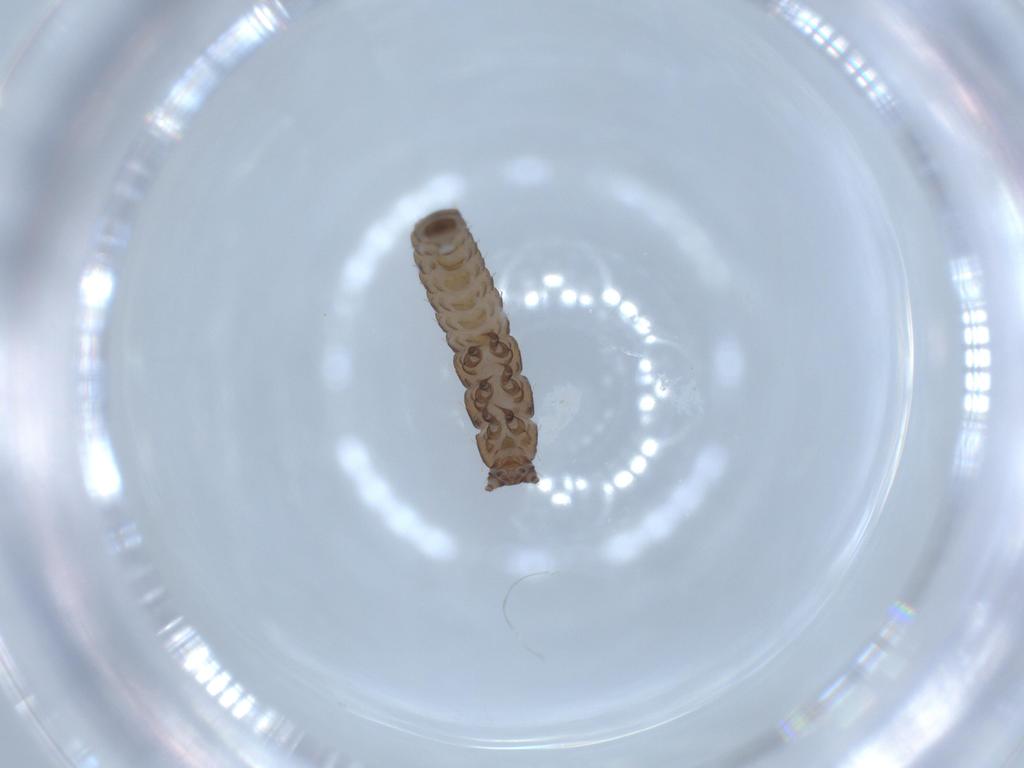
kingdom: Animalia
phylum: Arthropoda
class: Insecta
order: Coleoptera
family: Lycidae
